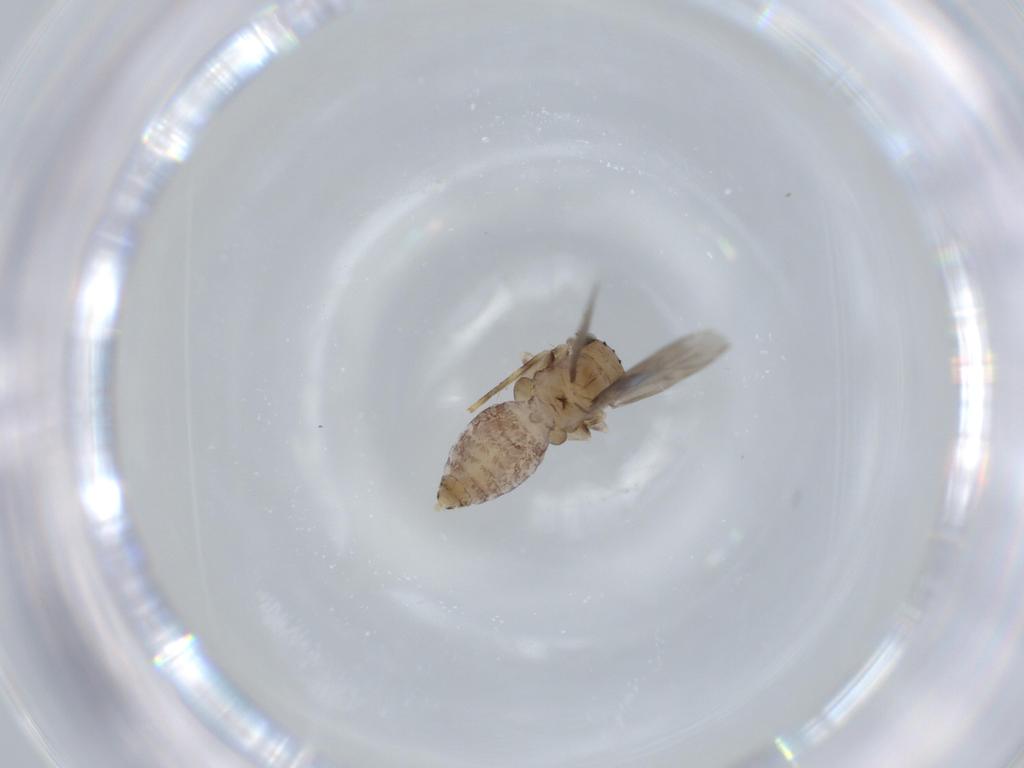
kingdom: Animalia
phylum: Arthropoda
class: Insecta
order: Psocodea
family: Lepidopsocidae
